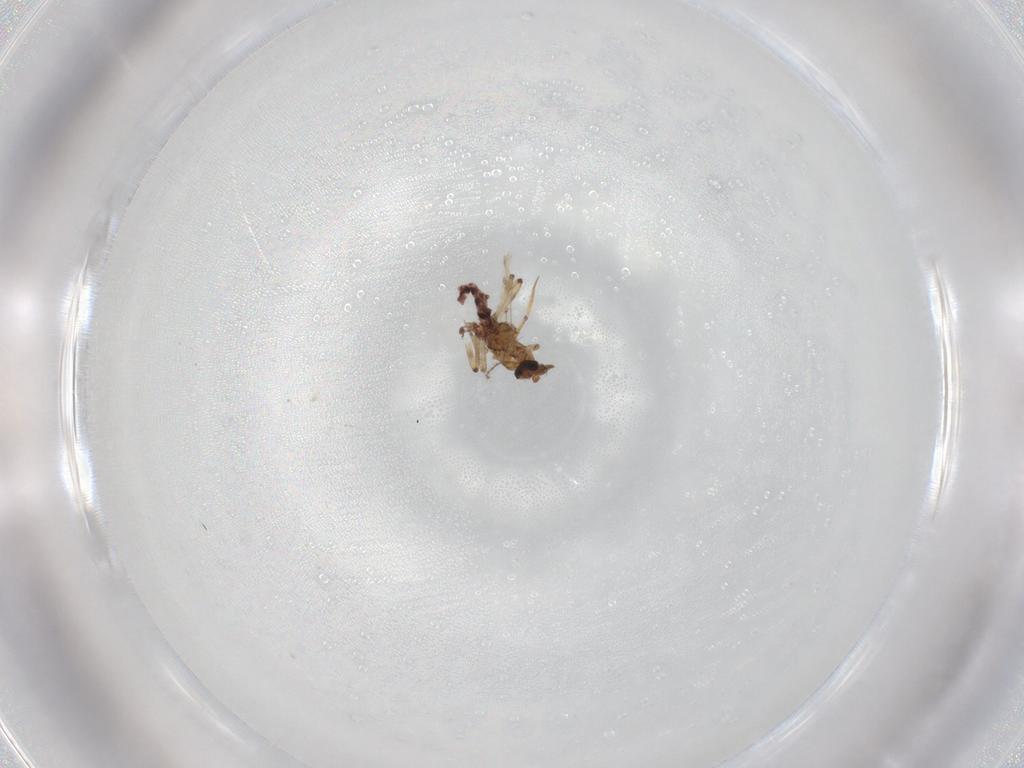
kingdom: Animalia
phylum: Arthropoda
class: Insecta
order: Diptera
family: Ceratopogonidae
